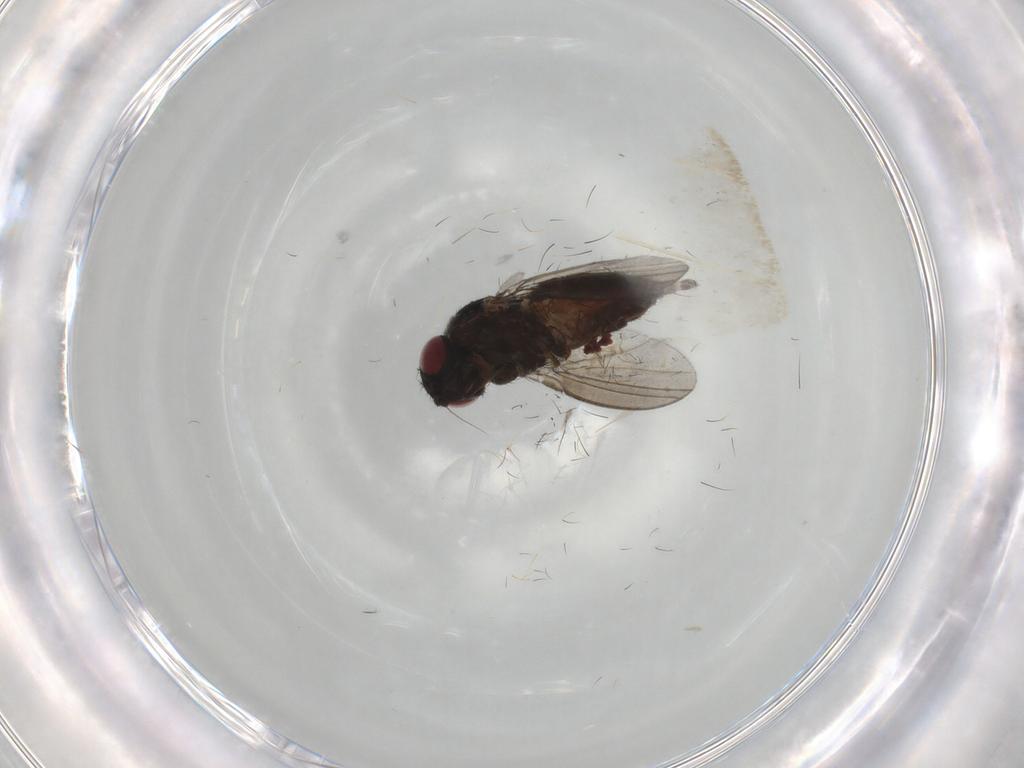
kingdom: Animalia
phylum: Arthropoda
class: Insecta
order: Diptera
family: Milichiidae
